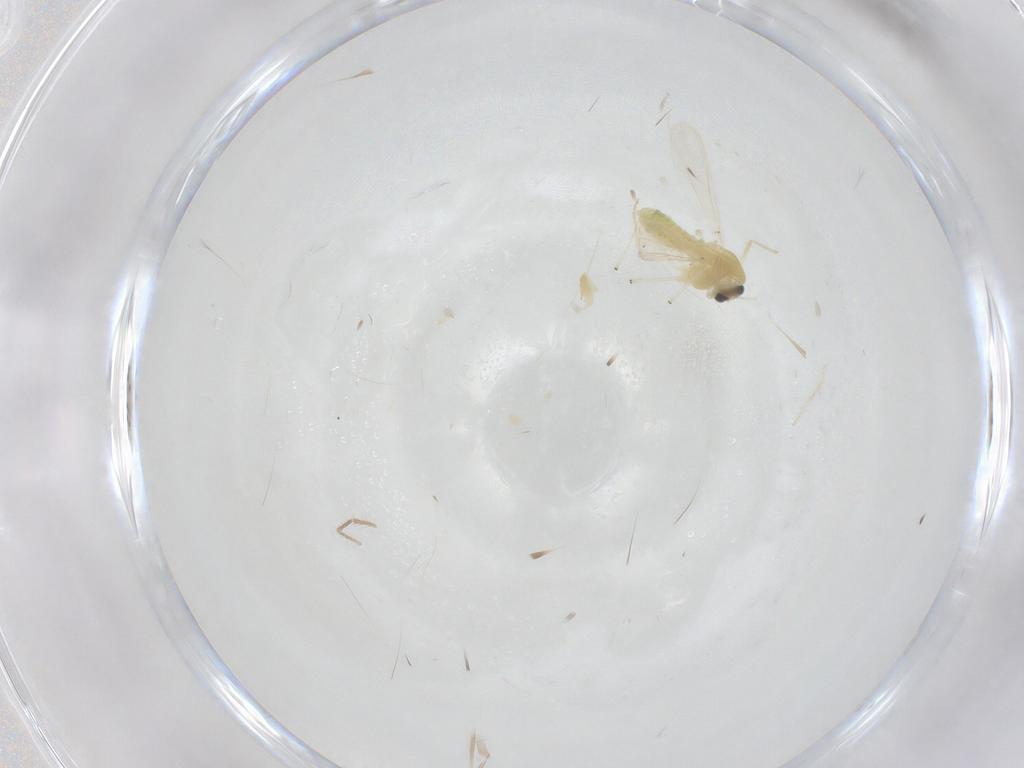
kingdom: Animalia
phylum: Arthropoda
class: Insecta
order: Diptera
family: Chironomidae
